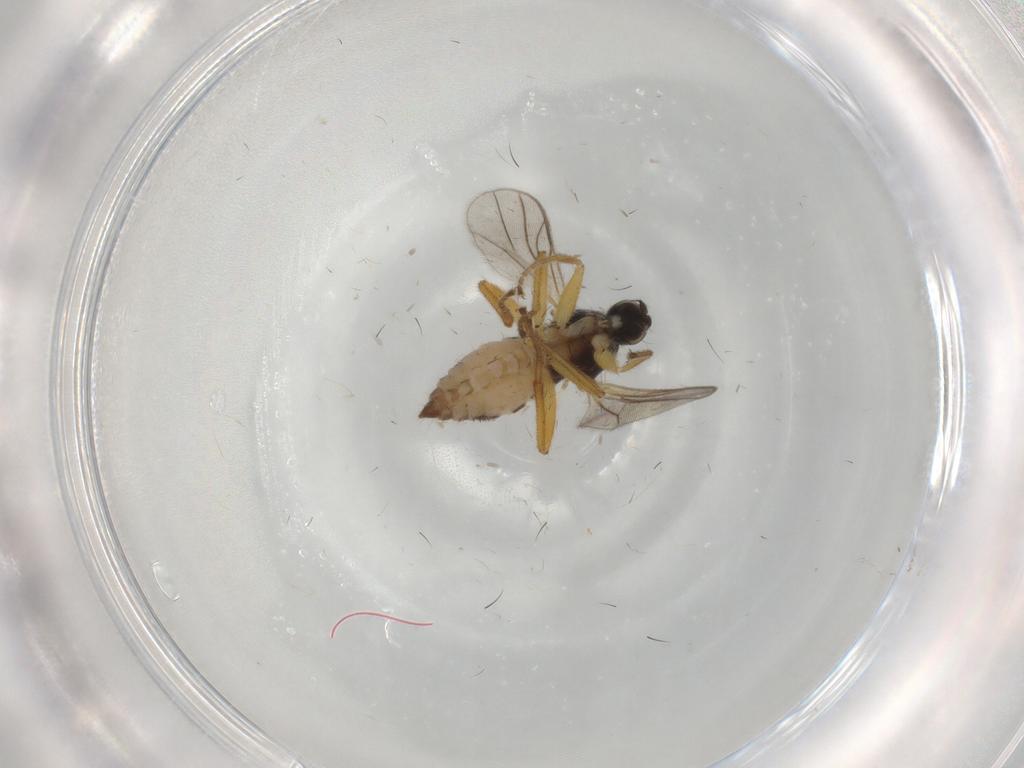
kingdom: Animalia
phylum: Arthropoda
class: Insecta
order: Diptera
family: Hybotidae
